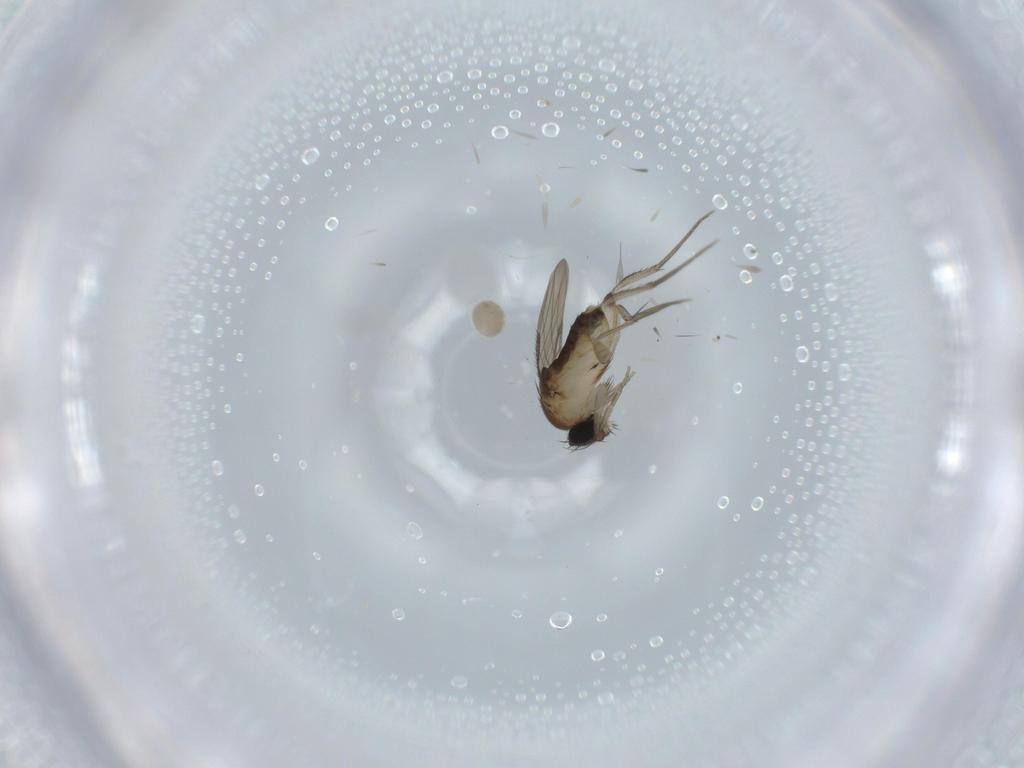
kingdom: Animalia
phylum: Arthropoda
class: Insecta
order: Diptera
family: Phoridae
